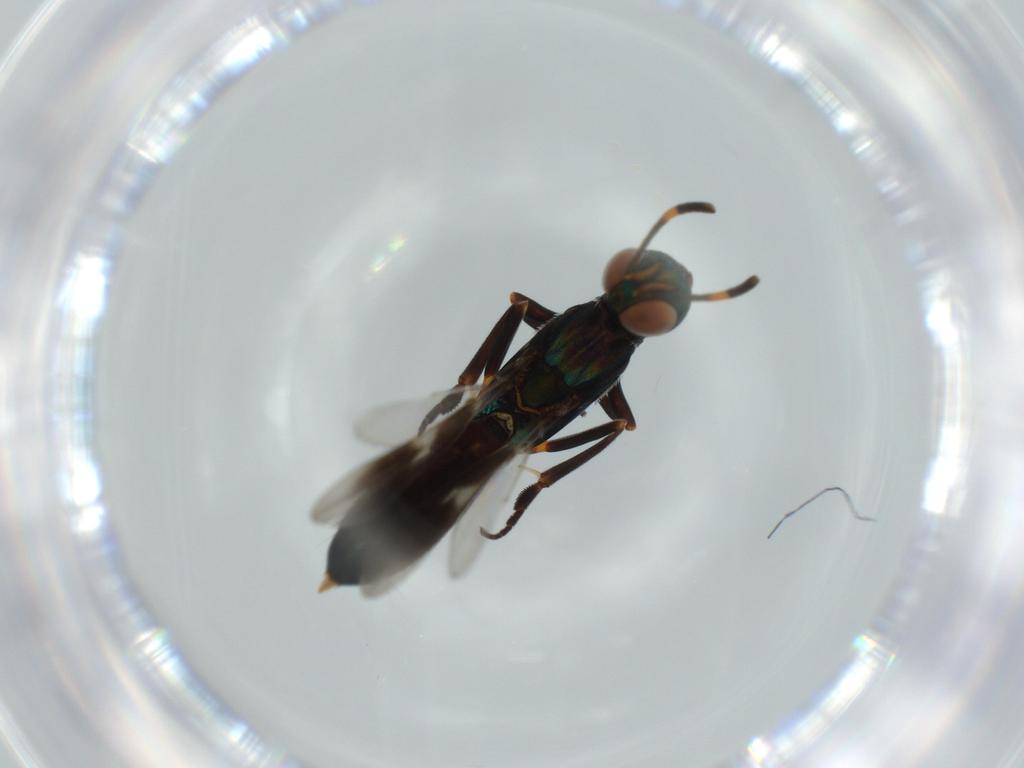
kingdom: Animalia
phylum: Arthropoda
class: Insecta
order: Hymenoptera
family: Eupelmidae
